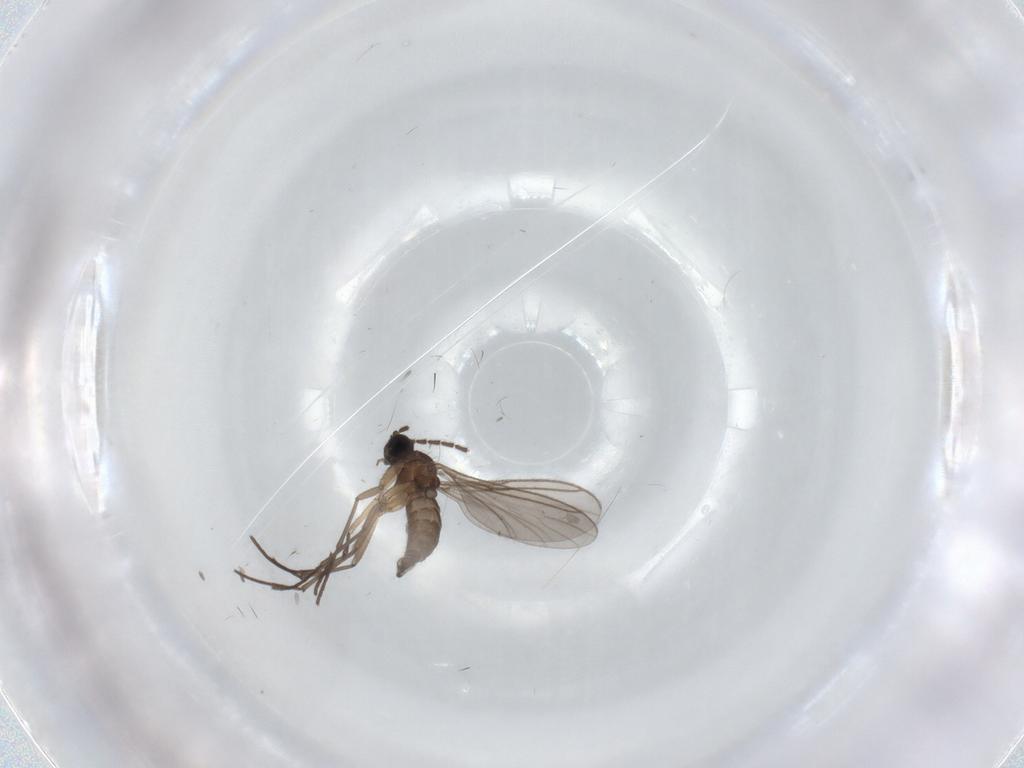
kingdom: Animalia
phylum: Arthropoda
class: Insecta
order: Diptera
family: Sciaridae
